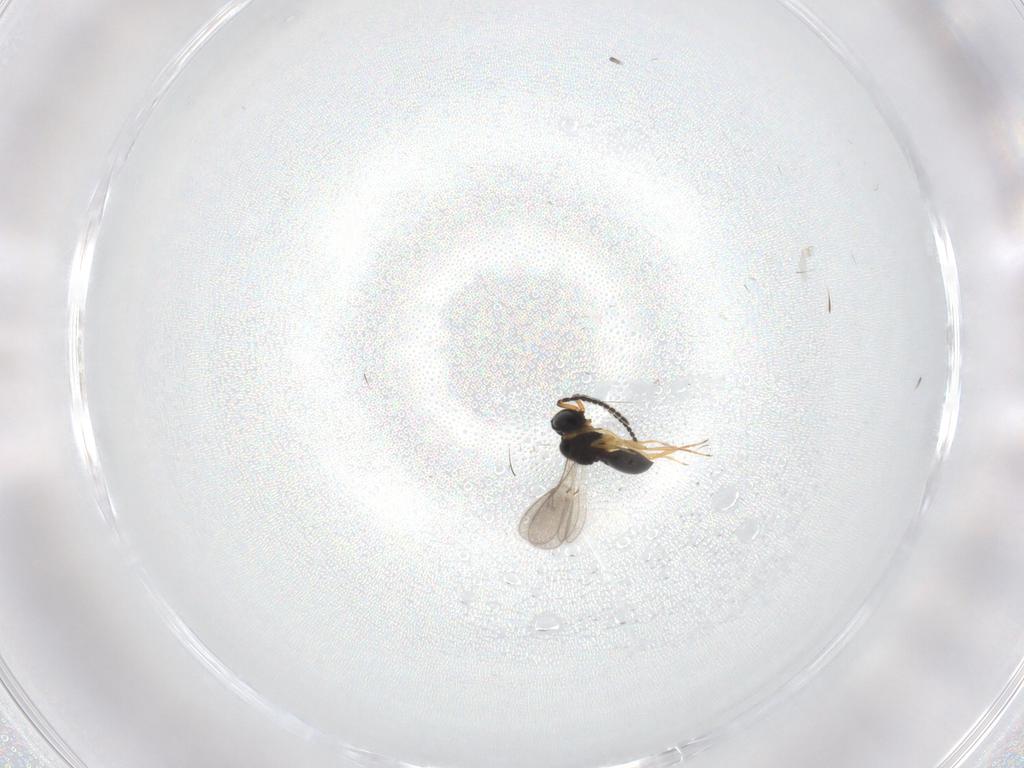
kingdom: Animalia
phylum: Arthropoda
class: Insecta
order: Hymenoptera
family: Scelionidae
